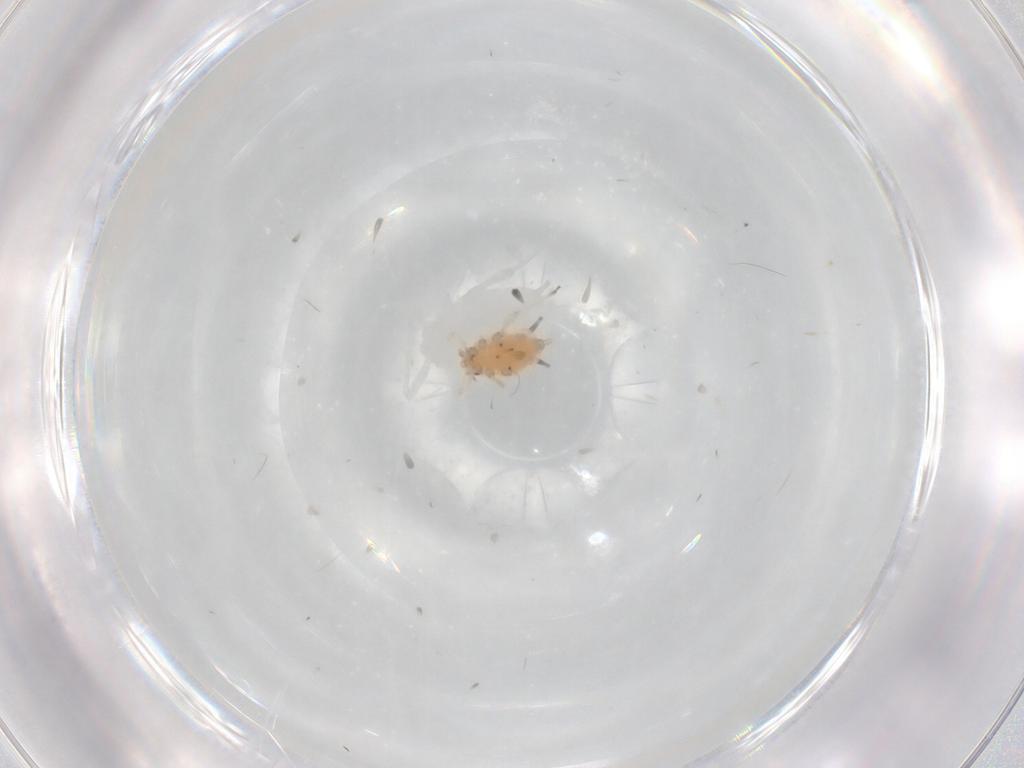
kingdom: Animalia
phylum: Arthropoda
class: Insecta
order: Hemiptera
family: Aphididae
